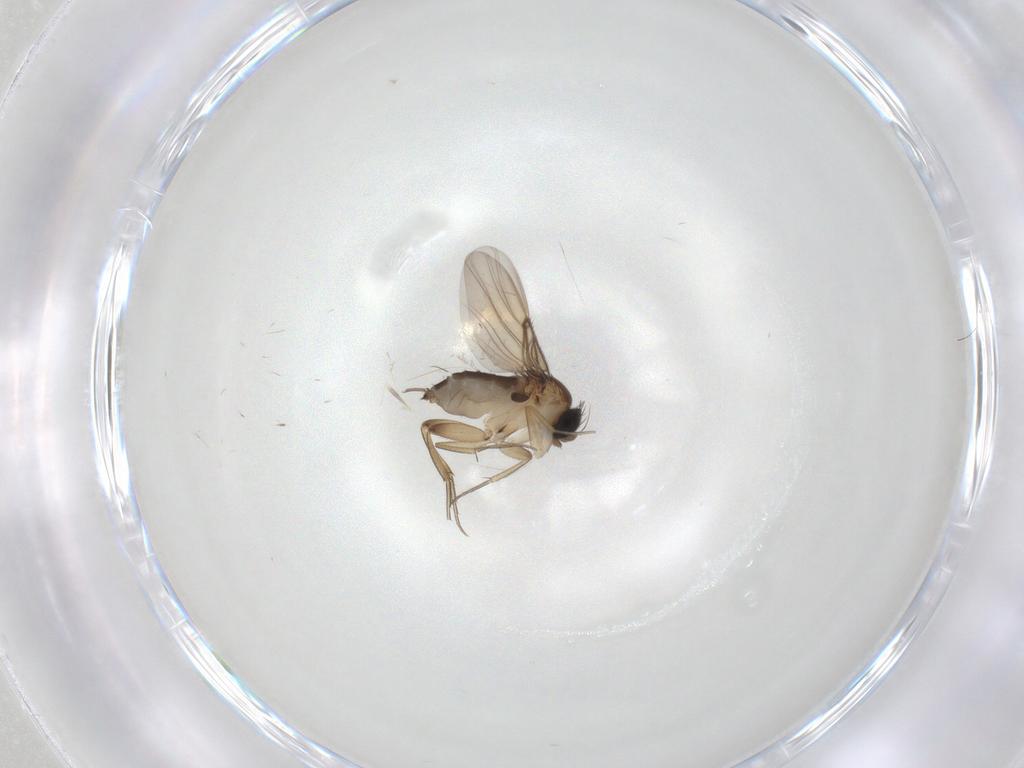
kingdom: Animalia
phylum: Arthropoda
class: Insecta
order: Diptera
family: Phoridae
